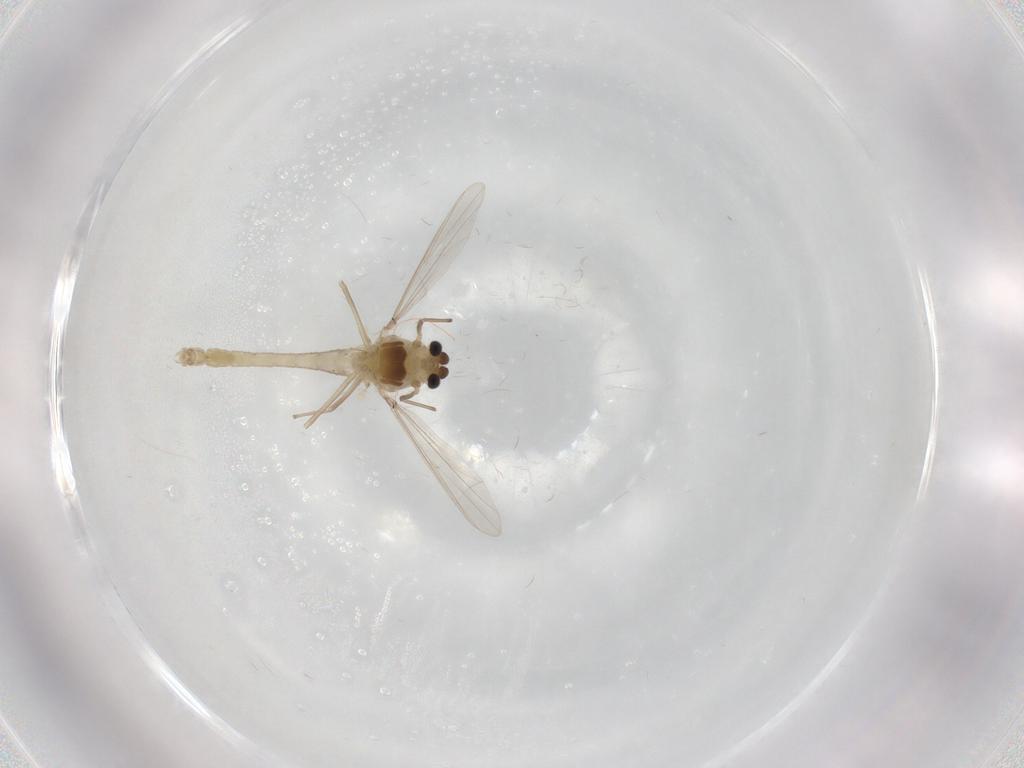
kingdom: Animalia
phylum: Arthropoda
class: Insecta
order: Diptera
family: Chironomidae
